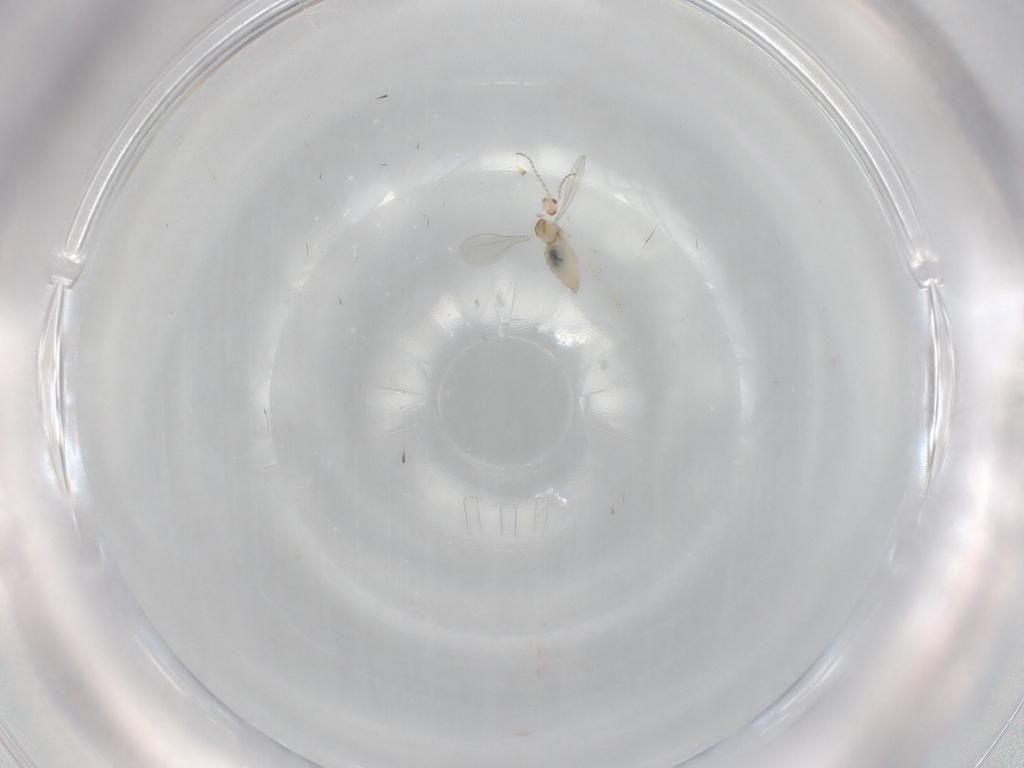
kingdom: Animalia
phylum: Arthropoda
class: Insecta
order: Diptera
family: Cecidomyiidae
